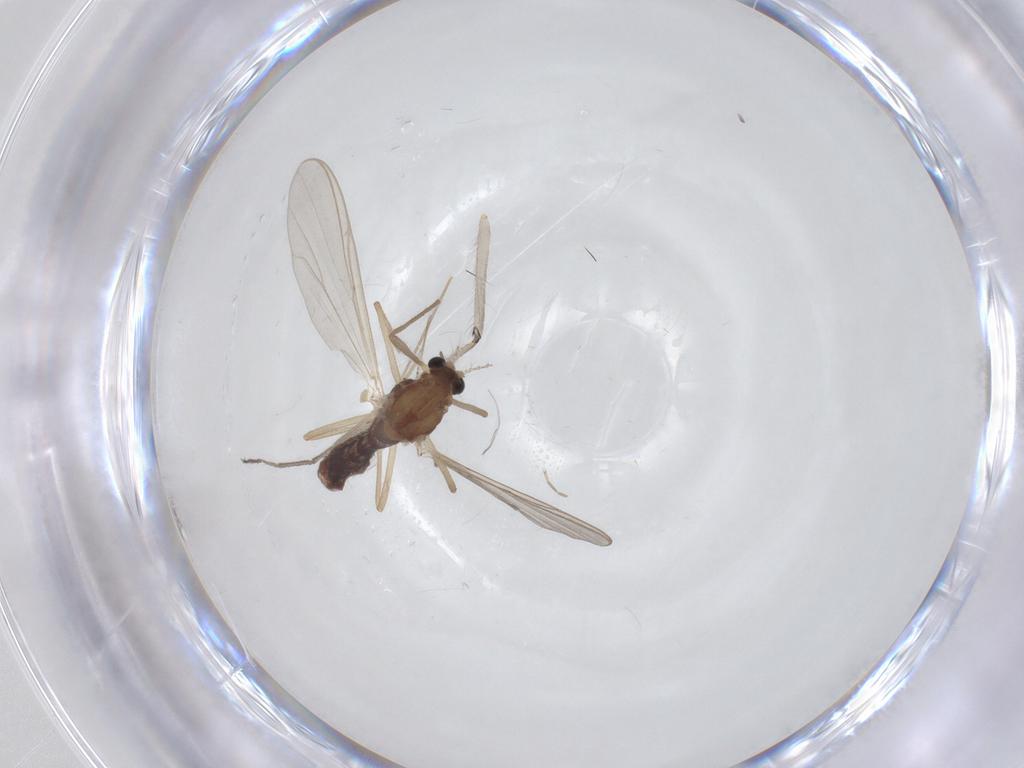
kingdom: Animalia
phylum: Arthropoda
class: Insecta
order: Diptera
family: Chironomidae
